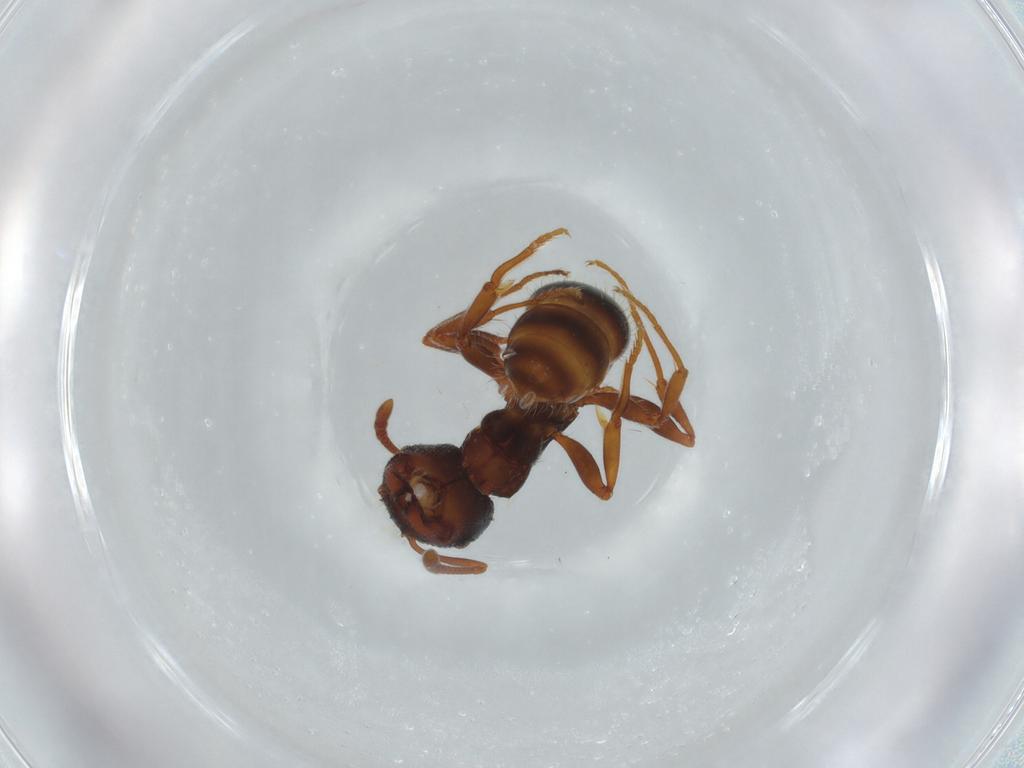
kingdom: Animalia
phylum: Arthropoda
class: Insecta
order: Hymenoptera
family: Formicidae
